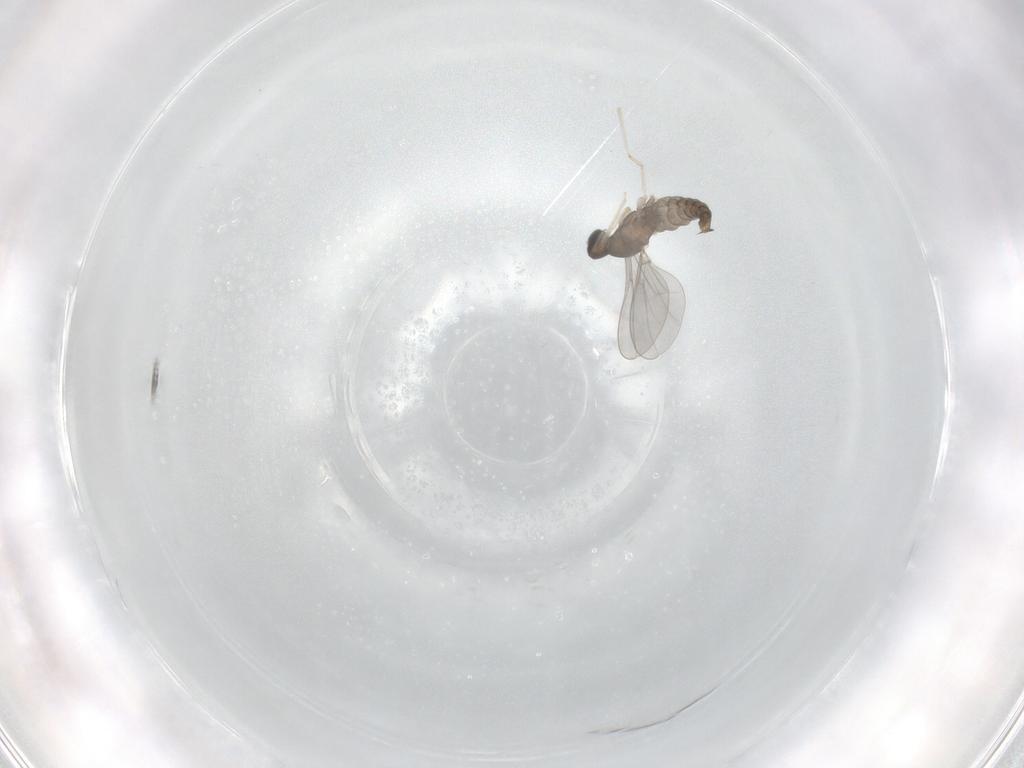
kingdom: Animalia
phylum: Arthropoda
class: Insecta
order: Diptera
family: Cecidomyiidae
